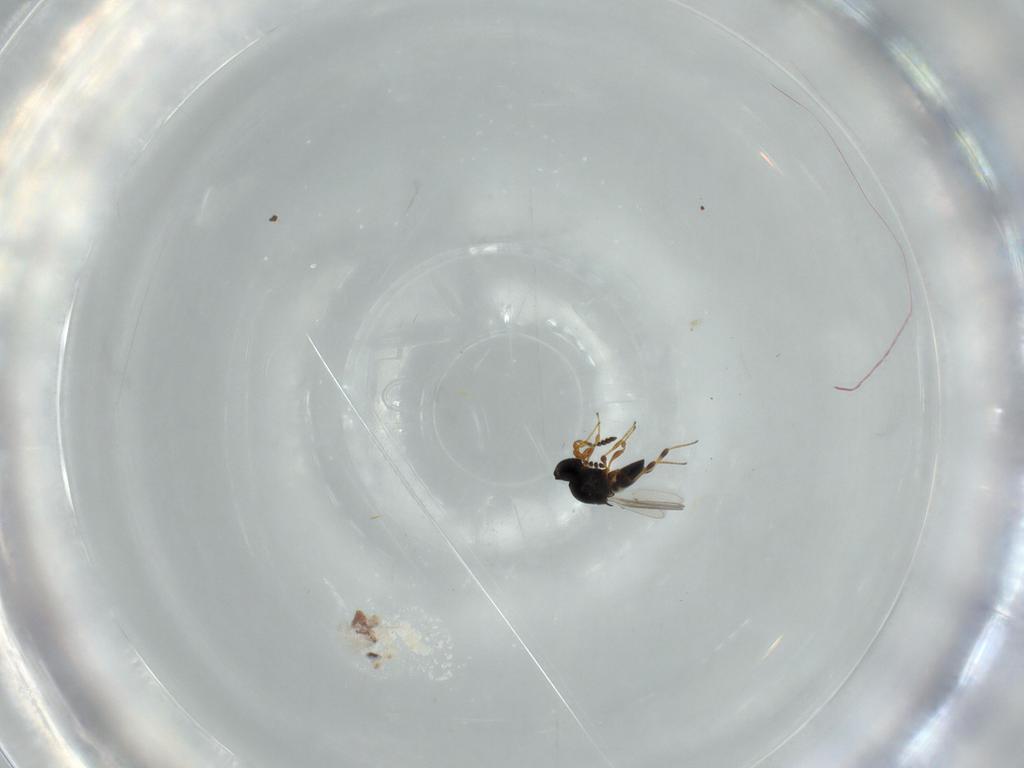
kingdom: Animalia
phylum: Arthropoda
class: Insecta
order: Hymenoptera
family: Platygastridae
